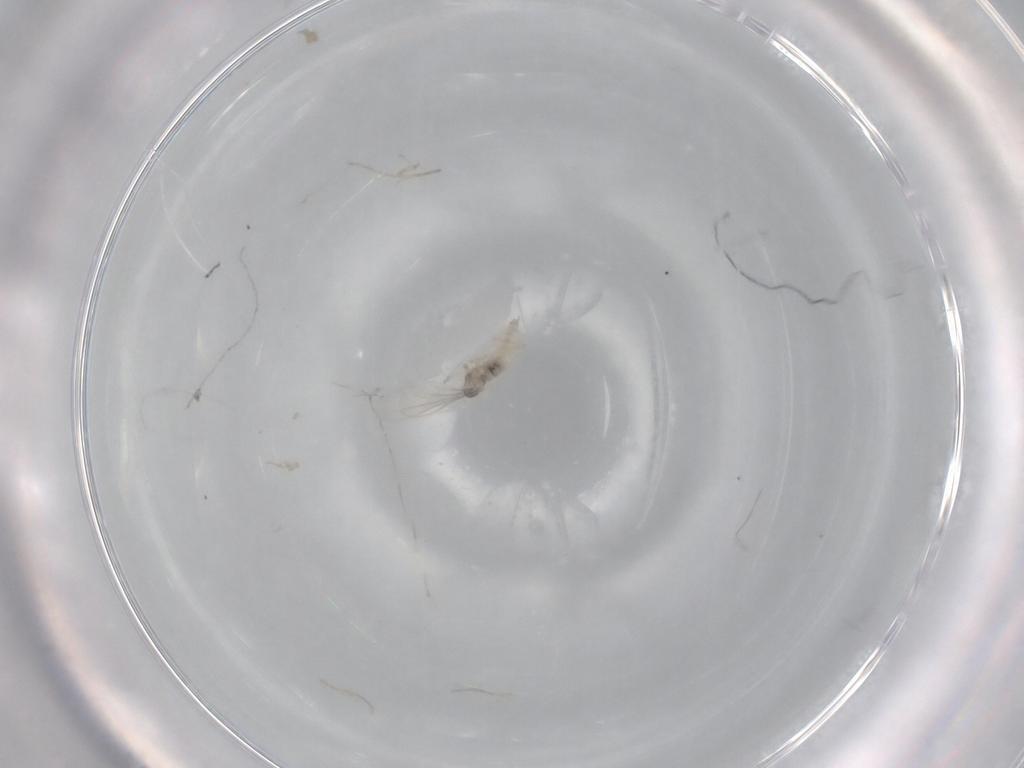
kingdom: Animalia
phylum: Arthropoda
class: Insecta
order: Diptera
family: Cecidomyiidae
